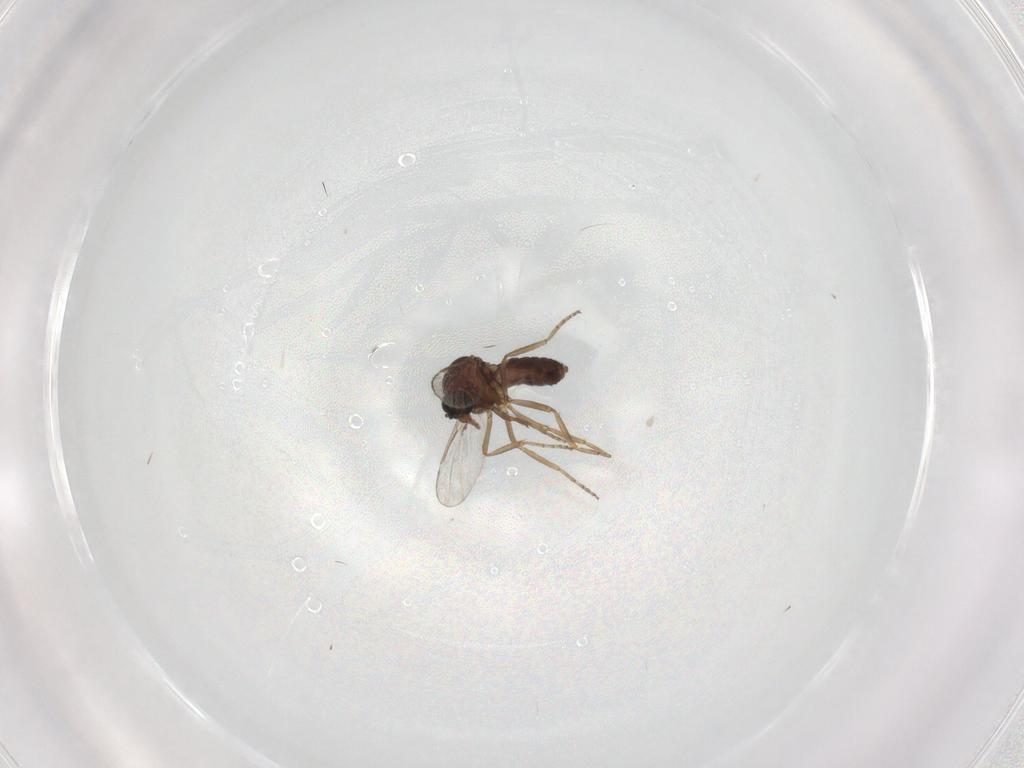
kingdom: Animalia
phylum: Arthropoda
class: Insecta
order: Diptera
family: Ceratopogonidae
